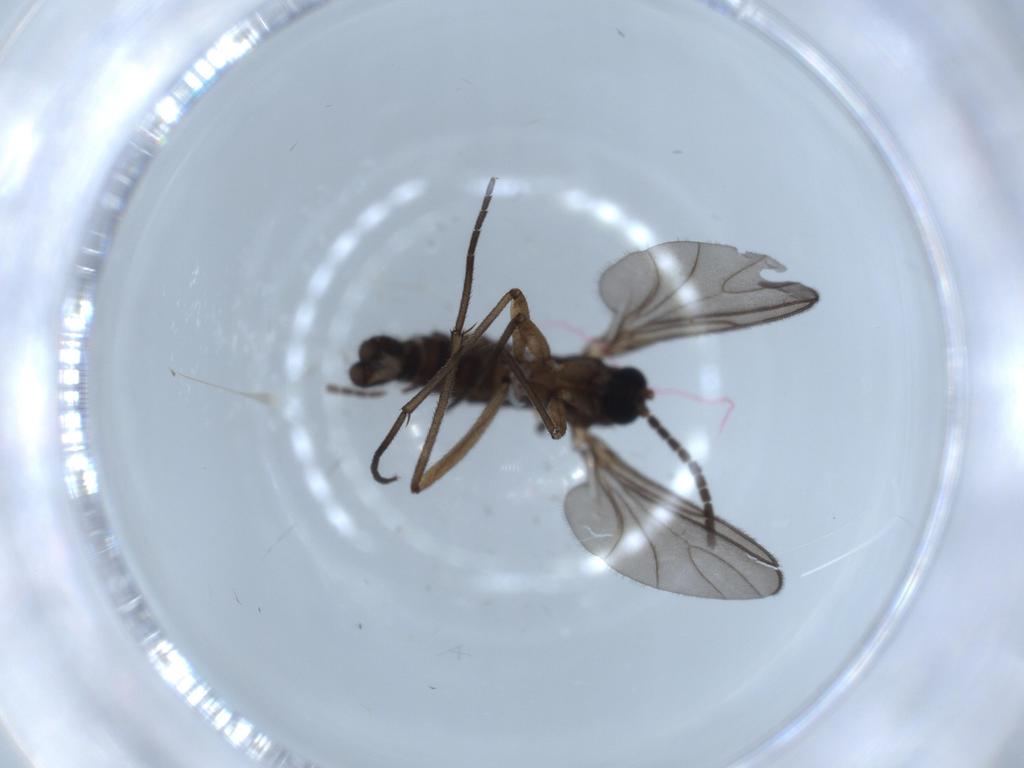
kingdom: Animalia
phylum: Arthropoda
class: Insecta
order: Diptera
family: Sciaridae
